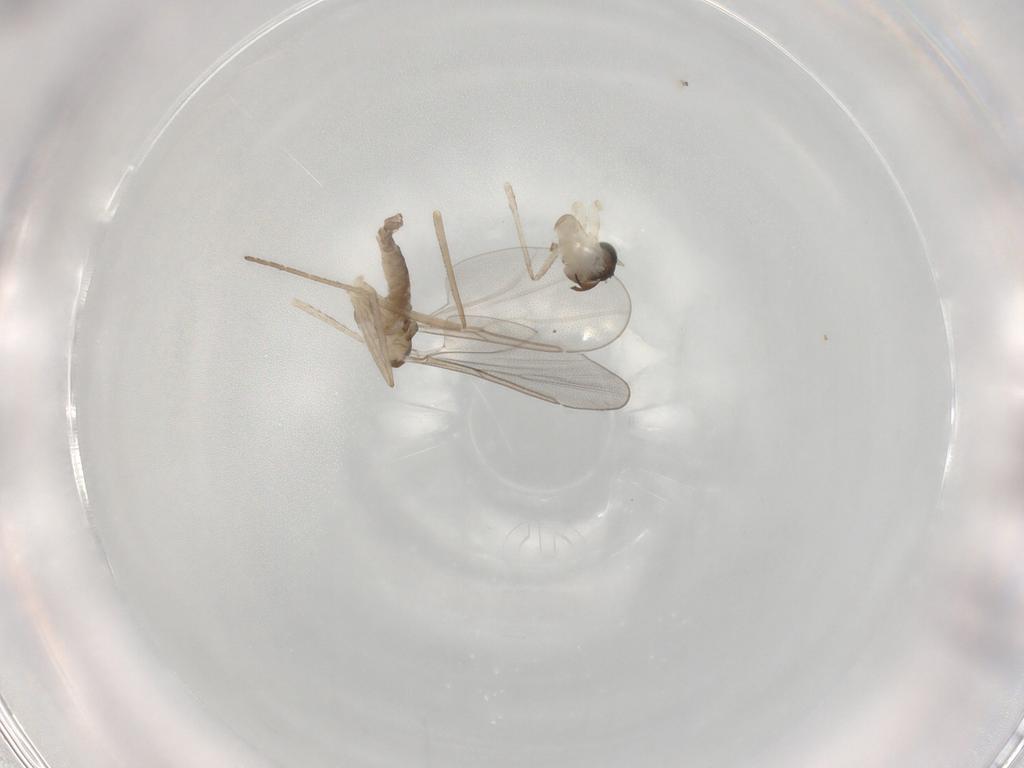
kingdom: Animalia
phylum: Arthropoda
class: Insecta
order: Diptera
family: Cecidomyiidae
